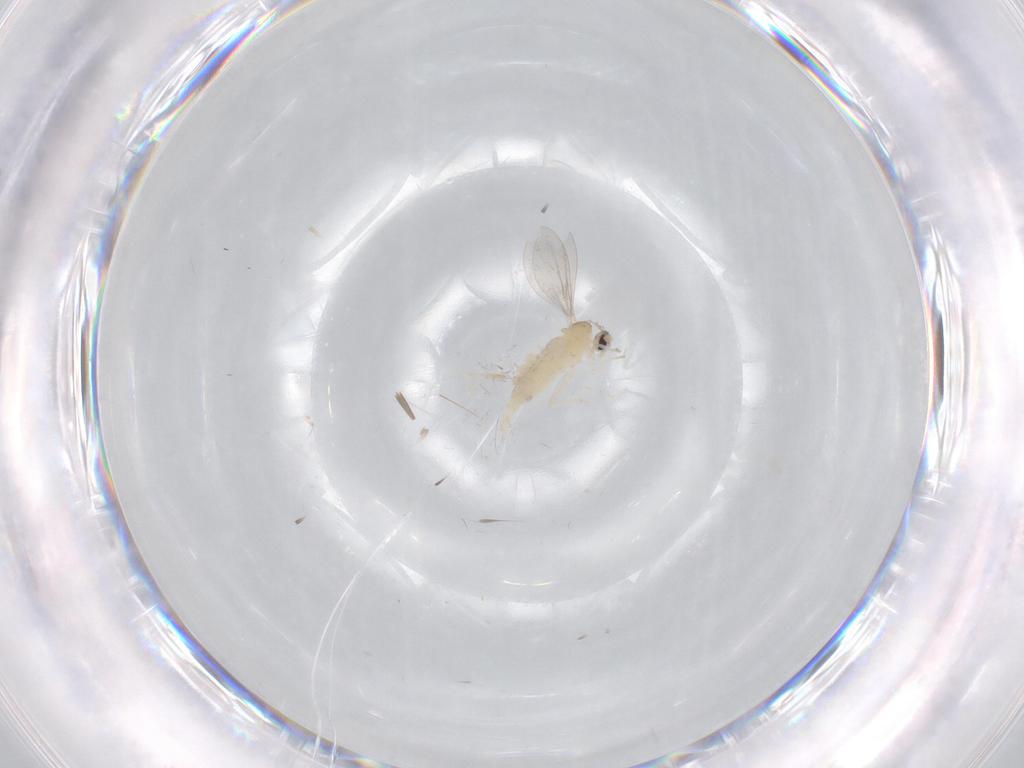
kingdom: Animalia
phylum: Arthropoda
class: Insecta
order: Diptera
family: Cecidomyiidae
